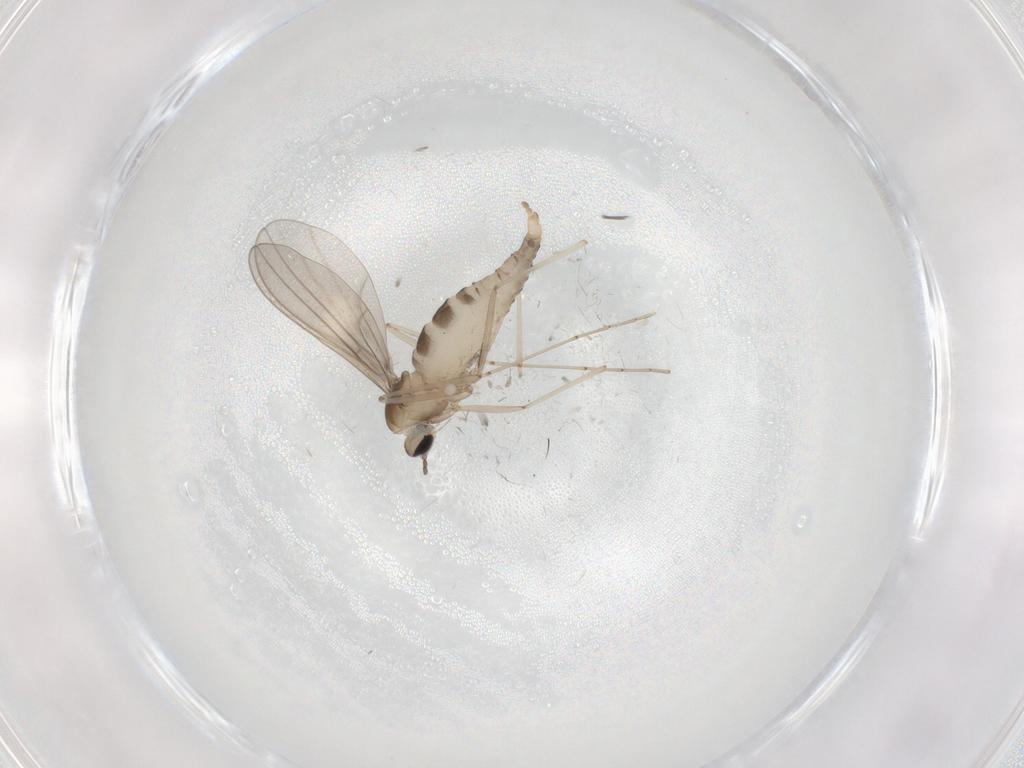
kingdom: Animalia
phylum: Arthropoda
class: Insecta
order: Diptera
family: Cecidomyiidae
